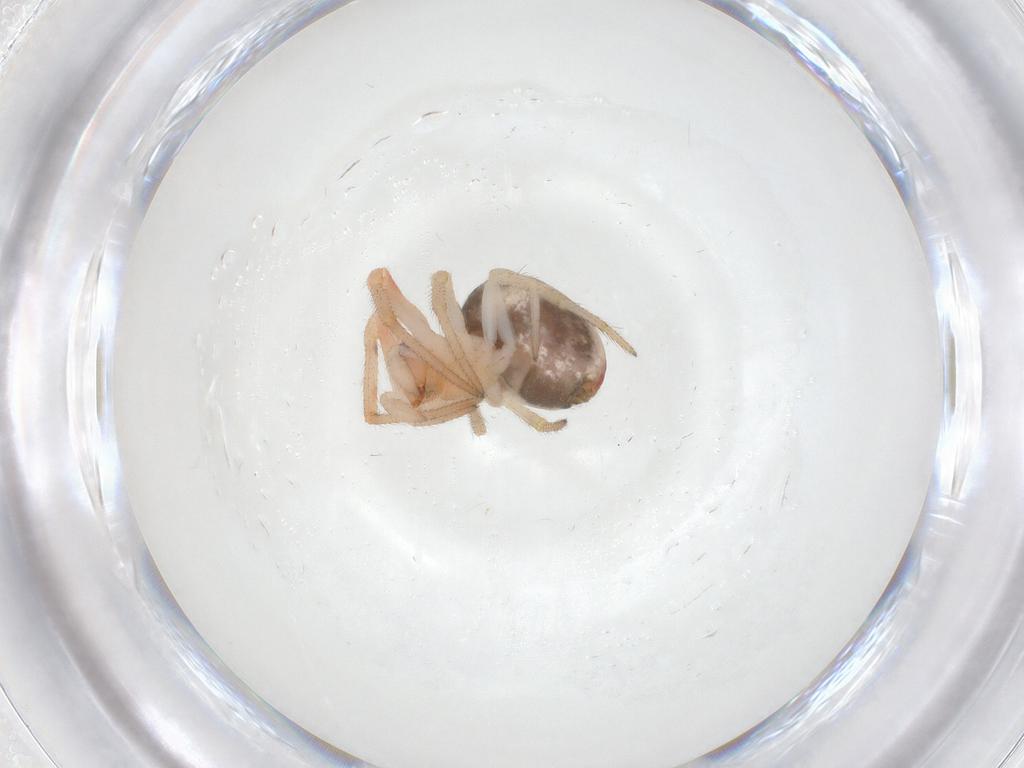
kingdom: Animalia
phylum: Arthropoda
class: Arachnida
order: Araneae
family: Theridiidae
